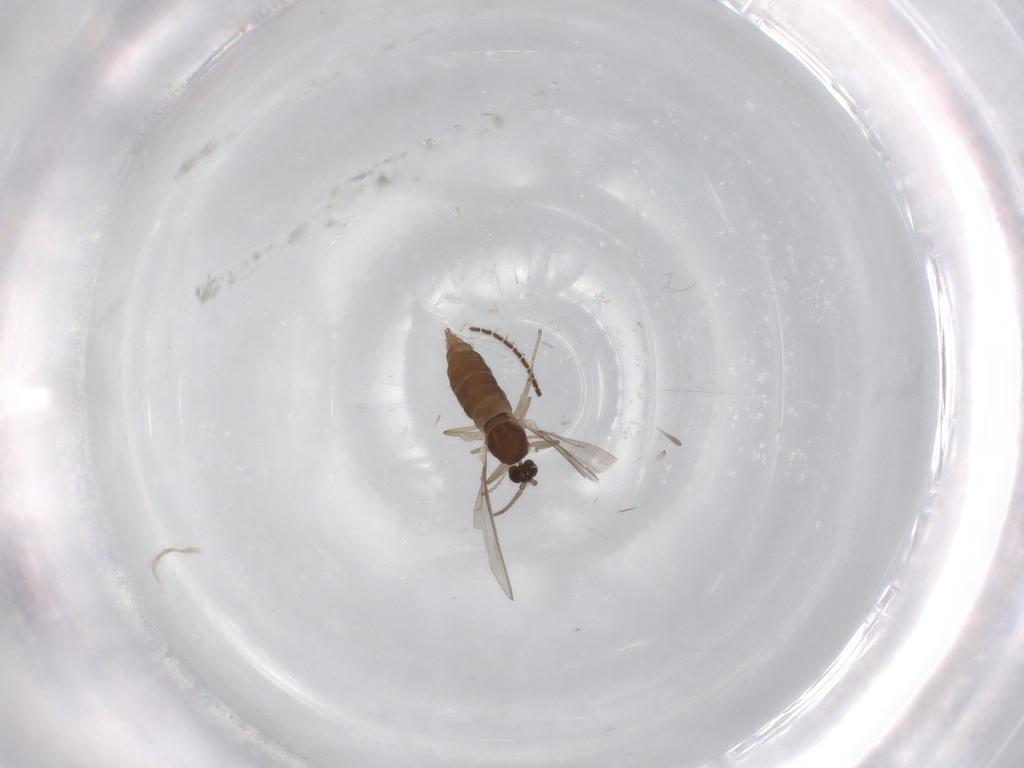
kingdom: Animalia
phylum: Arthropoda
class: Insecta
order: Diptera
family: Cecidomyiidae
